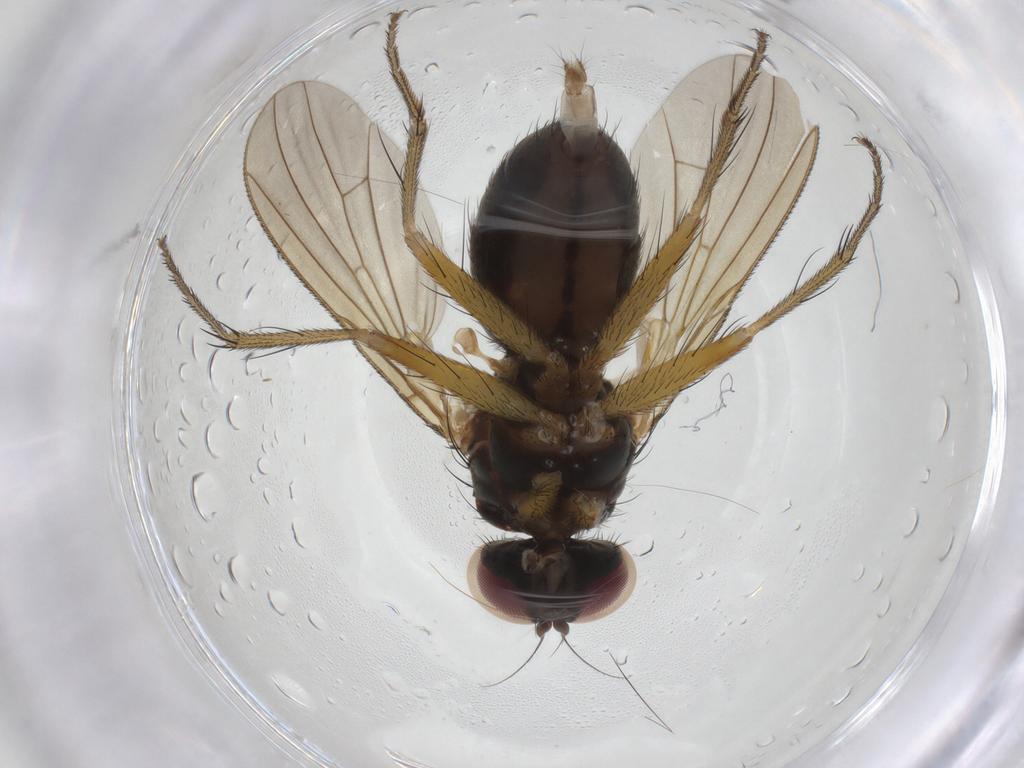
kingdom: Animalia
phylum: Arthropoda
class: Insecta
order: Diptera
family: Anthomyiidae
